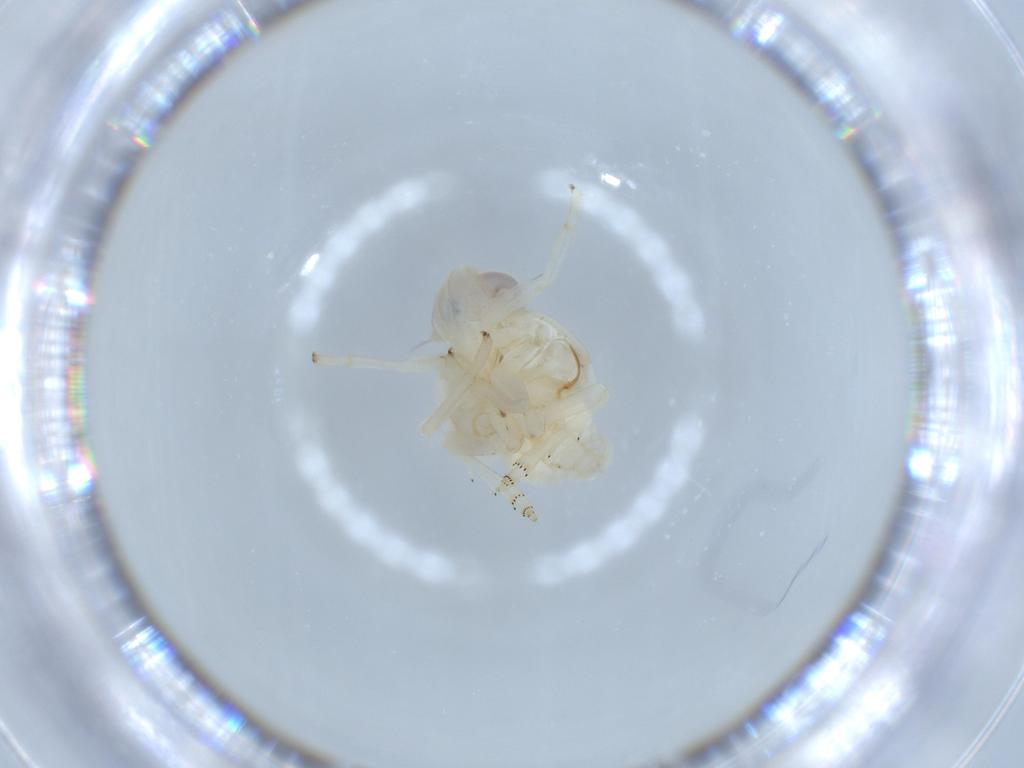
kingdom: Animalia
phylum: Arthropoda
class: Insecta
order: Hemiptera
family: Nogodinidae
